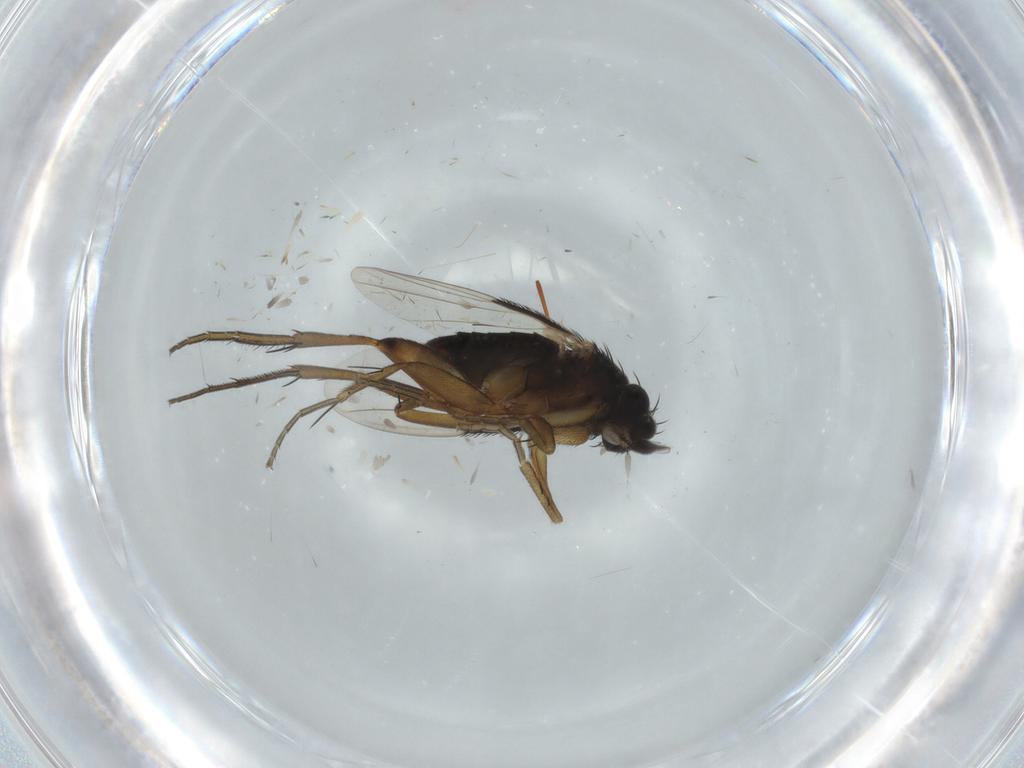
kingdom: Animalia
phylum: Arthropoda
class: Insecta
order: Diptera
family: Phoridae
